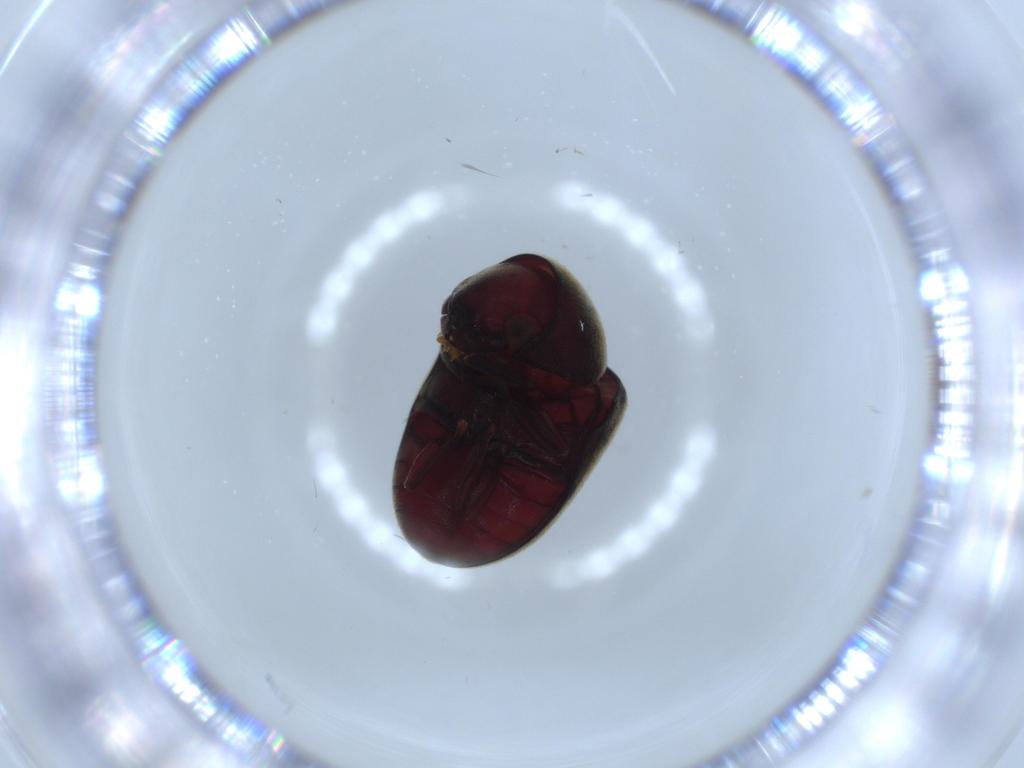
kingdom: Animalia
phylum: Arthropoda
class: Insecta
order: Coleoptera
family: Ptinidae
